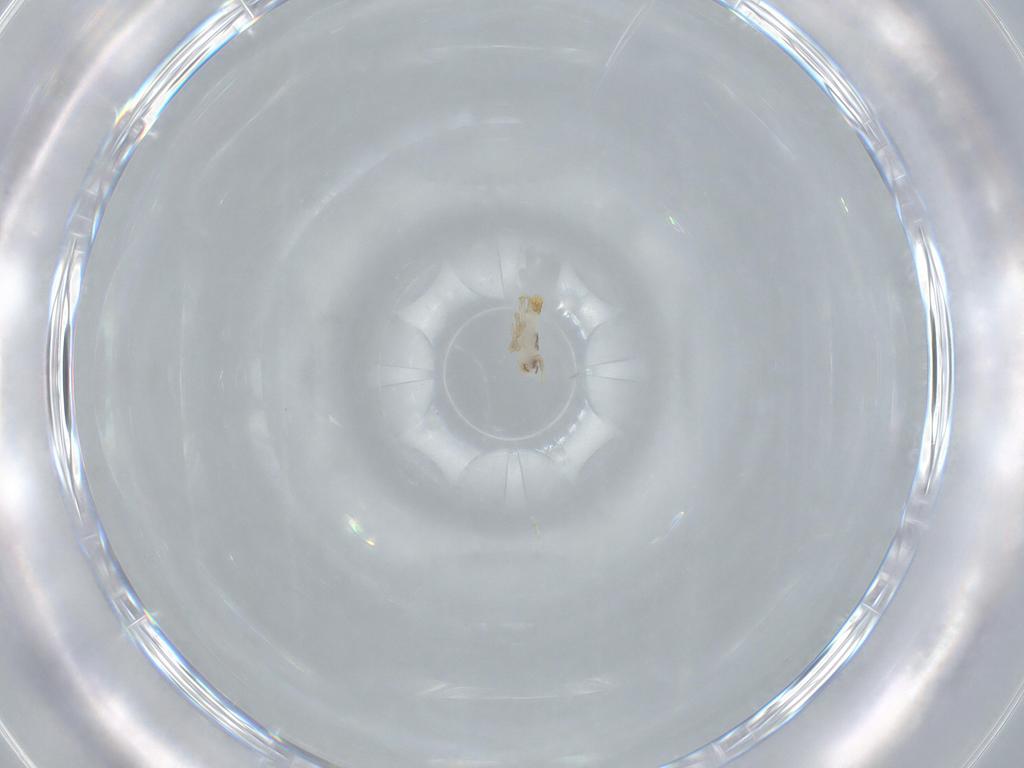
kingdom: Animalia
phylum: Arthropoda
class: Insecta
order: Hemiptera
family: Delphacidae
